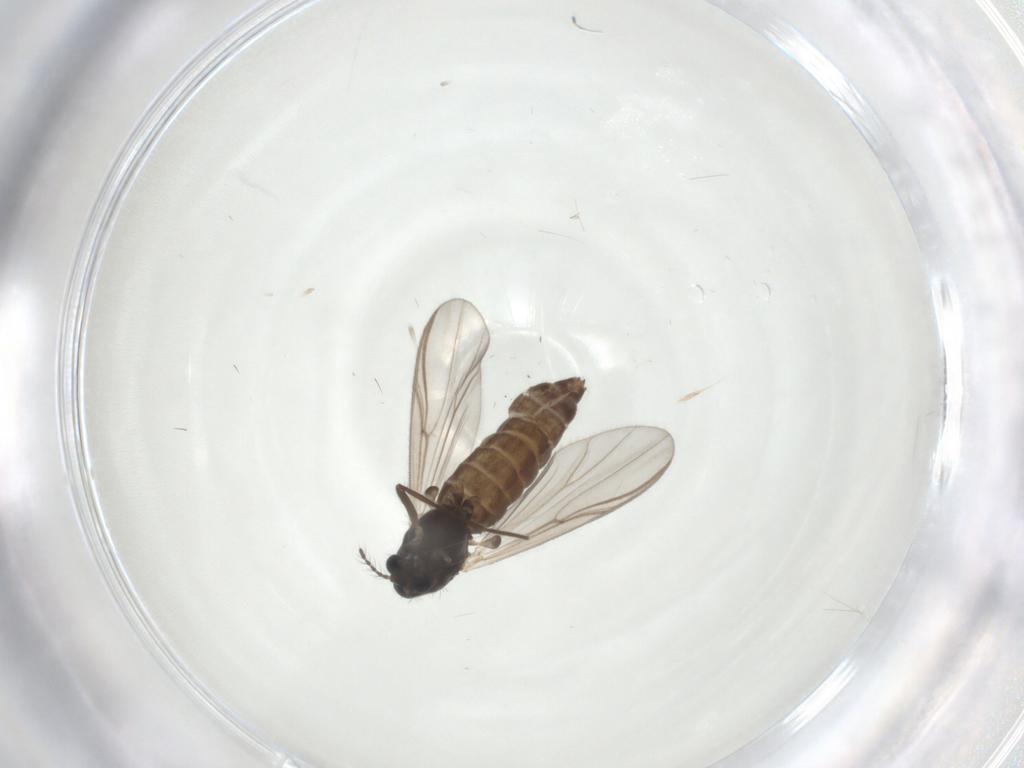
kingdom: Animalia
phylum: Arthropoda
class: Insecta
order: Diptera
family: Chironomidae
